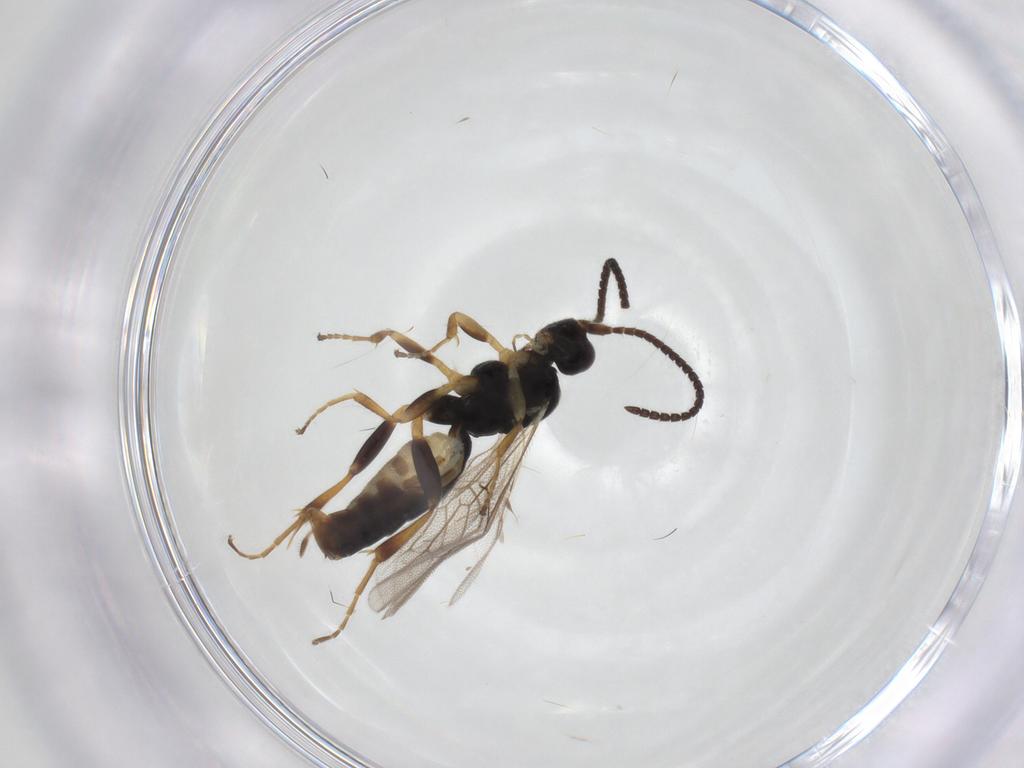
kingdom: Animalia
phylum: Arthropoda
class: Insecta
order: Hymenoptera
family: Ichneumonidae
